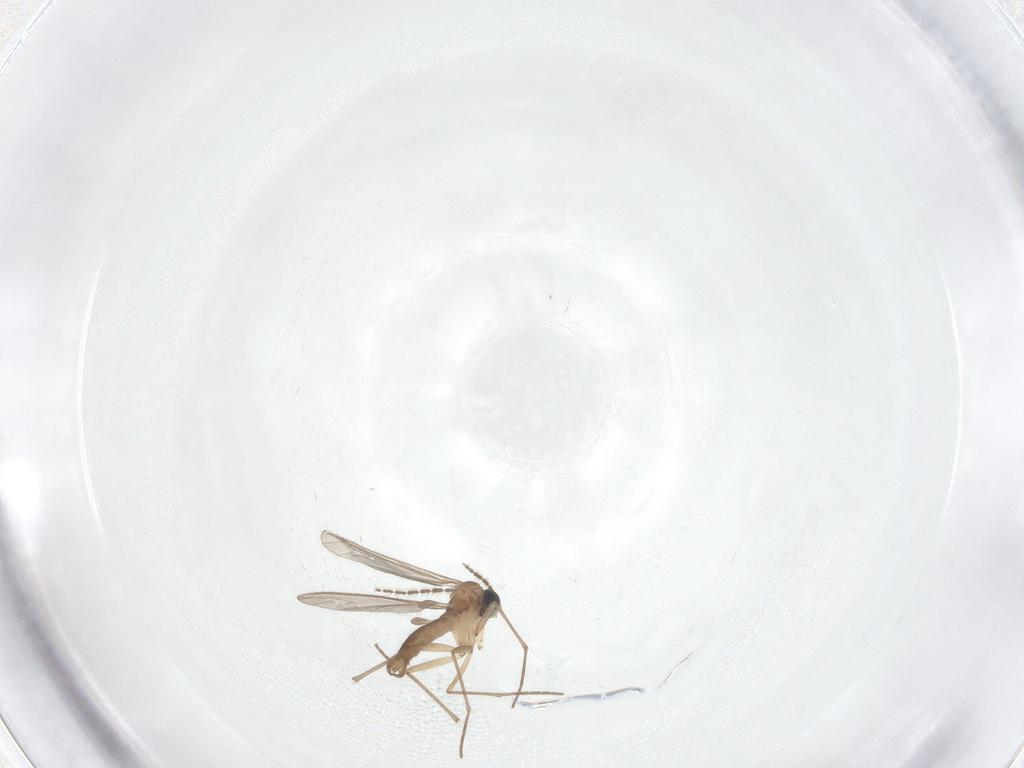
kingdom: Animalia
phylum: Arthropoda
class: Insecta
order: Diptera
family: Sciaridae
